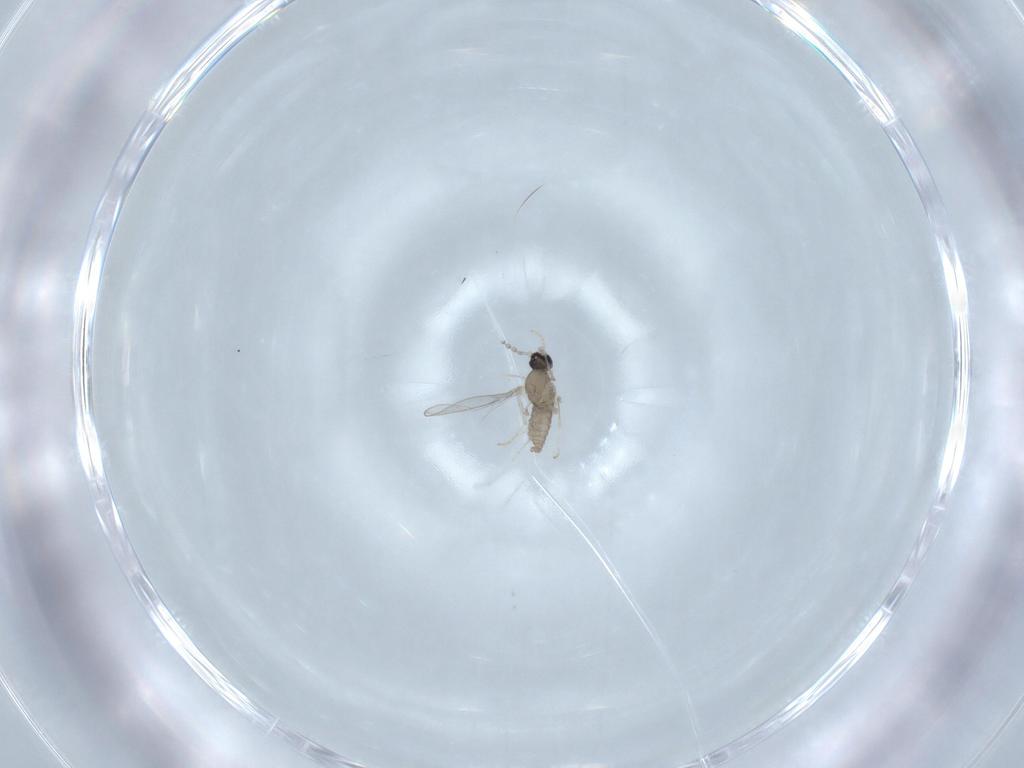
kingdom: Animalia
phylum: Arthropoda
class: Insecta
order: Diptera
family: Cecidomyiidae
